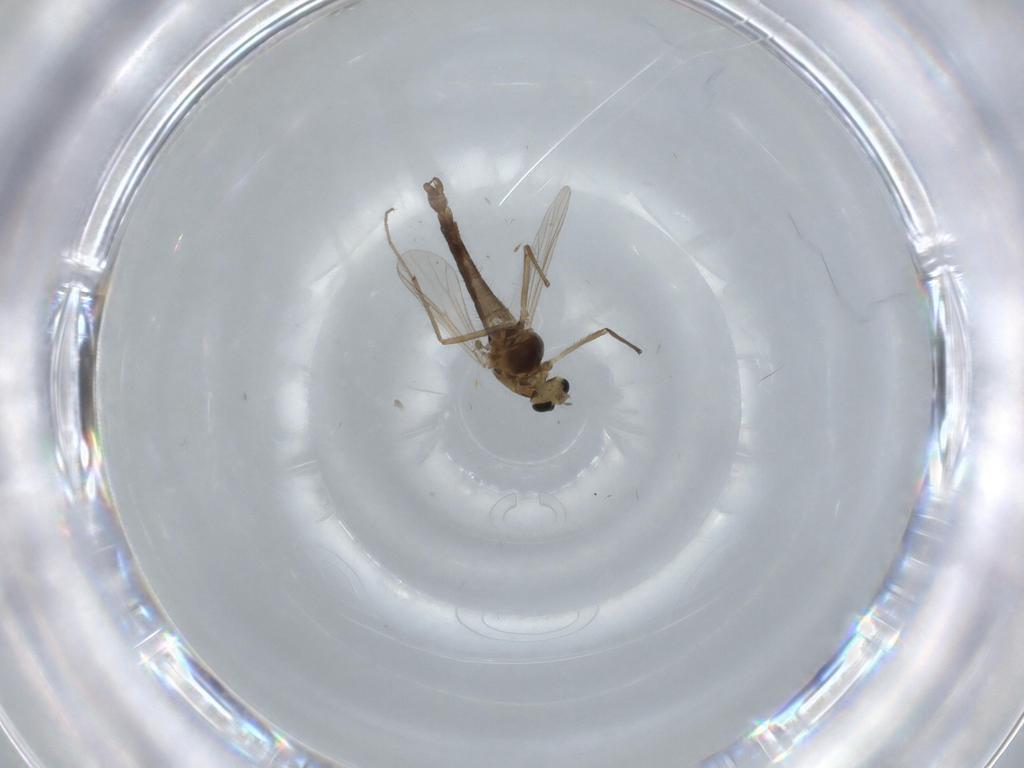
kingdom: Animalia
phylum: Arthropoda
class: Insecta
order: Diptera
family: Chironomidae
